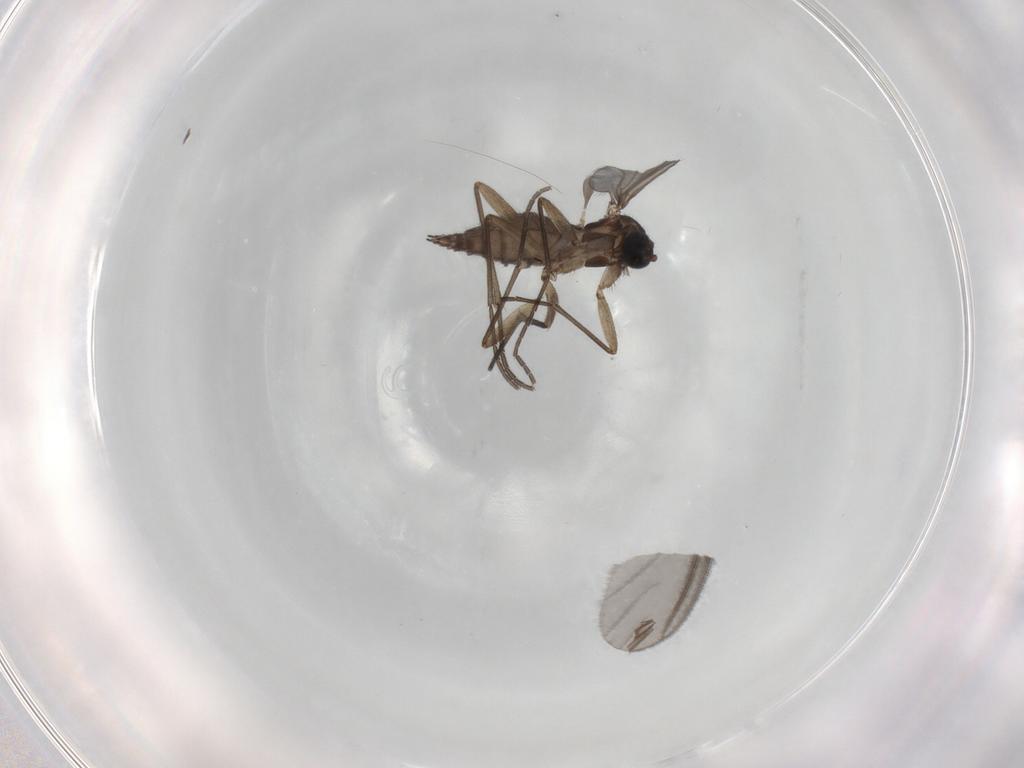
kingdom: Animalia
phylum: Arthropoda
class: Insecta
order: Diptera
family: Sciaridae
